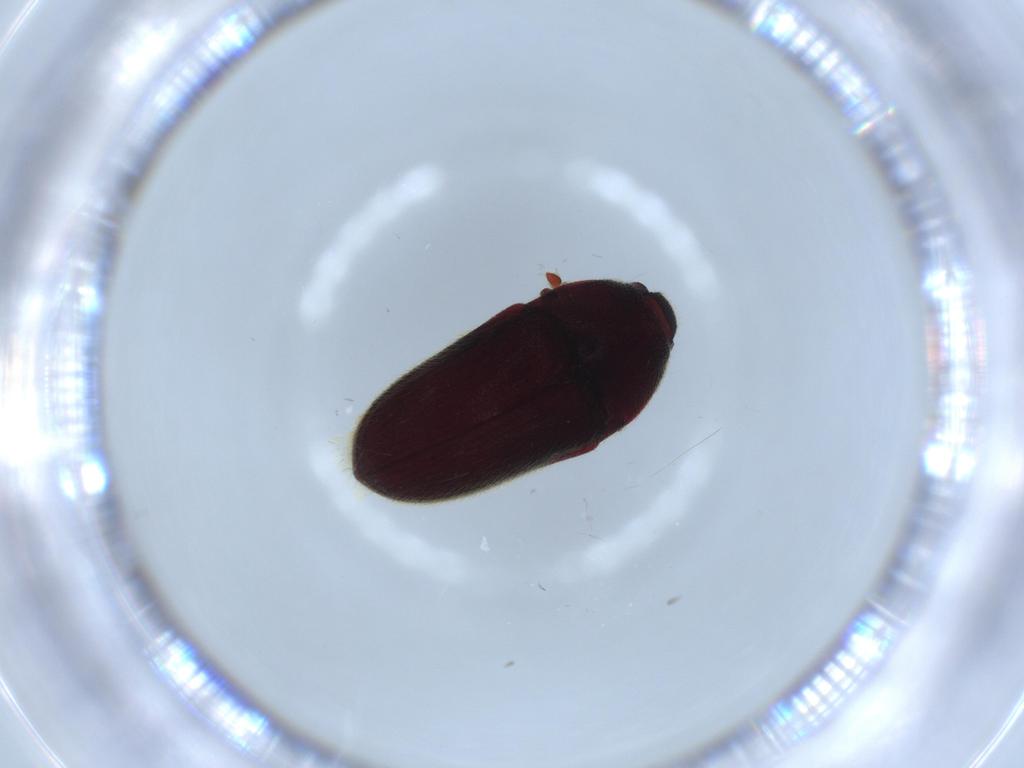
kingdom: Animalia
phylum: Arthropoda
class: Insecta
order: Coleoptera
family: Throscidae
